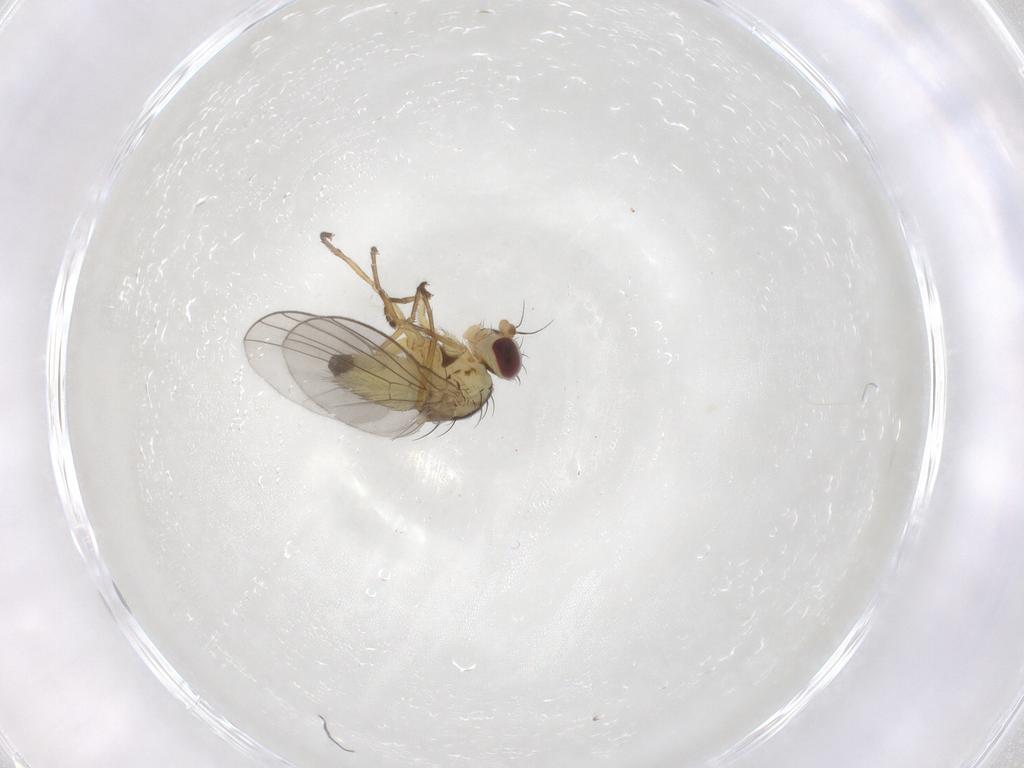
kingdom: Animalia
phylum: Arthropoda
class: Insecta
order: Diptera
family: Agromyzidae
